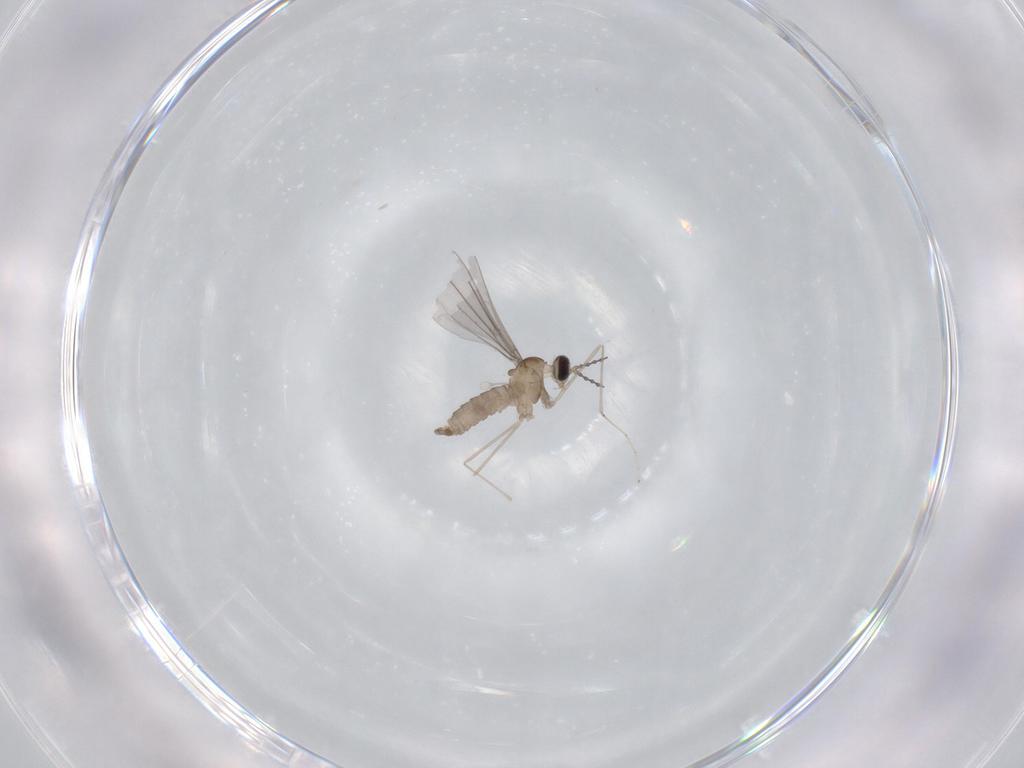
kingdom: Animalia
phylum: Arthropoda
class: Insecta
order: Diptera
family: Cecidomyiidae
